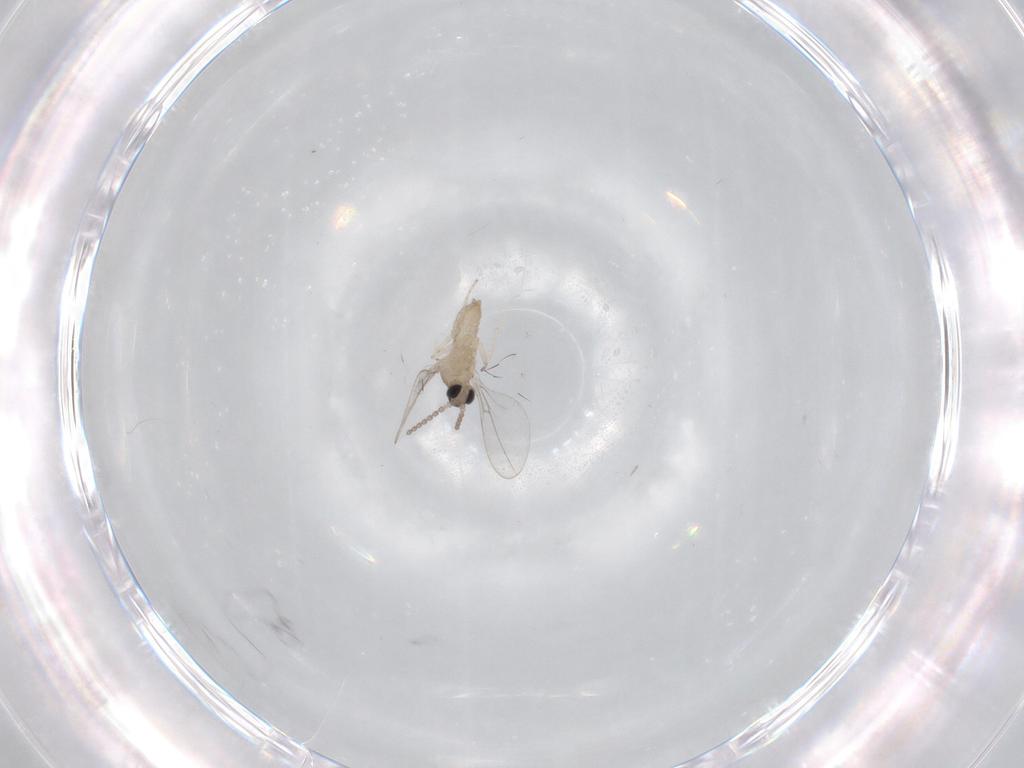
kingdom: Animalia
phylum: Arthropoda
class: Insecta
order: Diptera
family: Cecidomyiidae
